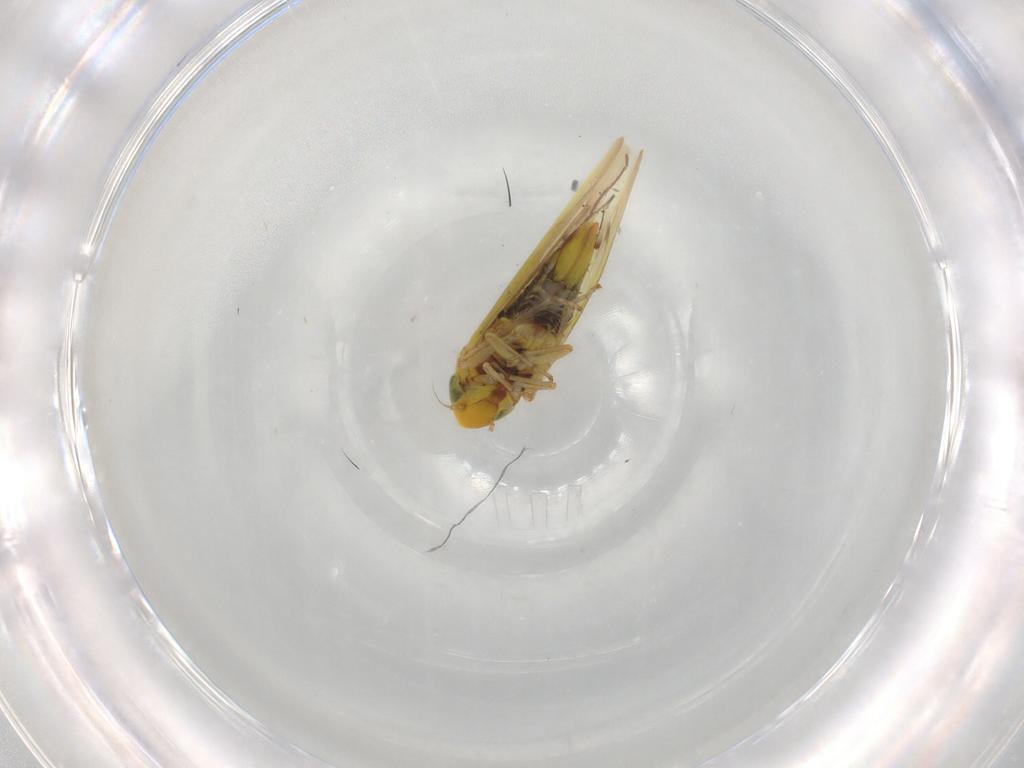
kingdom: Animalia
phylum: Arthropoda
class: Insecta
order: Hemiptera
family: Cicadellidae
